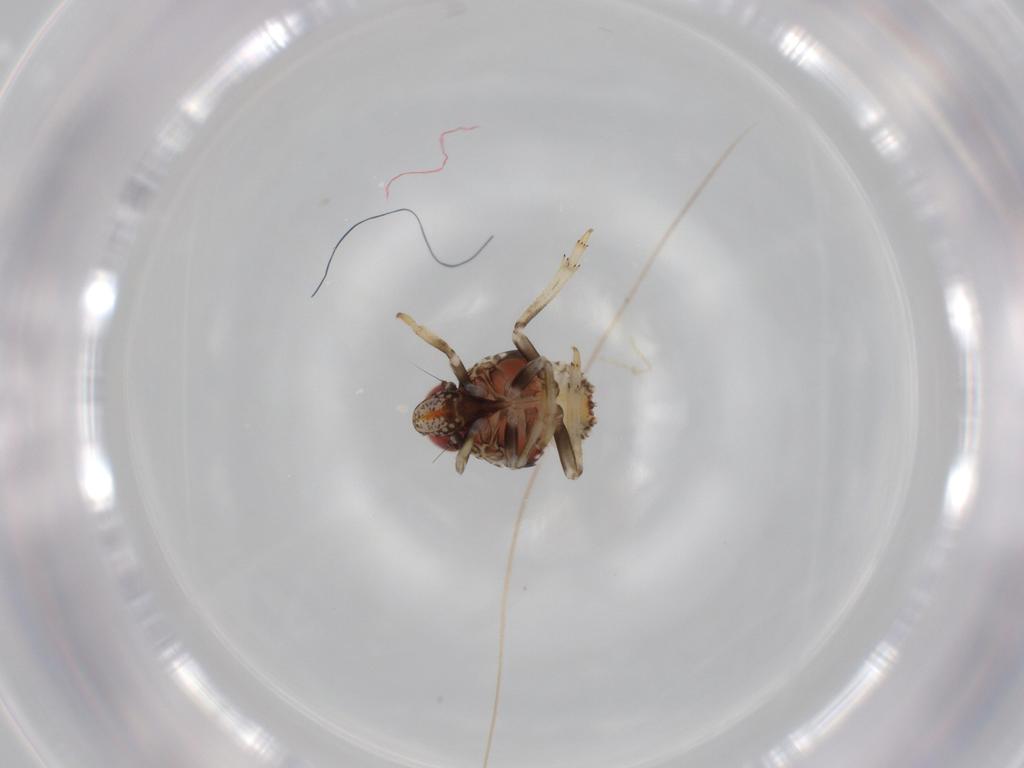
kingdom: Animalia
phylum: Arthropoda
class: Insecta
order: Hemiptera
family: Issidae
